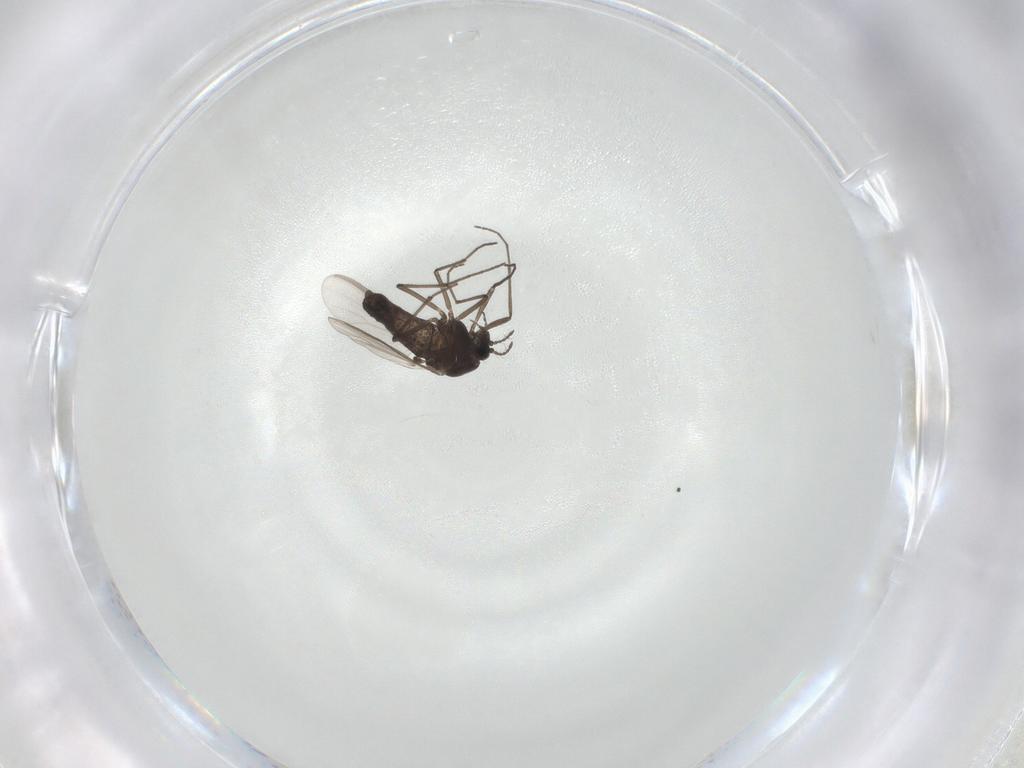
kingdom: Animalia
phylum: Arthropoda
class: Insecta
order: Diptera
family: Chironomidae
